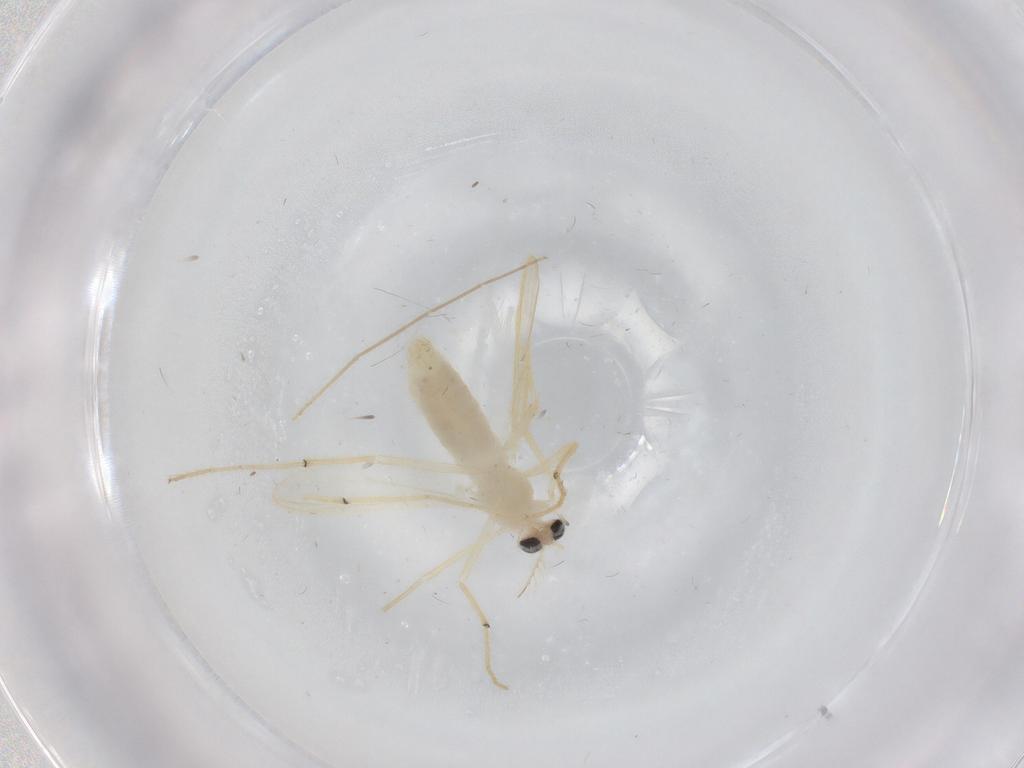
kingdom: Animalia
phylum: Arthropoda
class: Insecta
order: Diptera
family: Chironomidae
